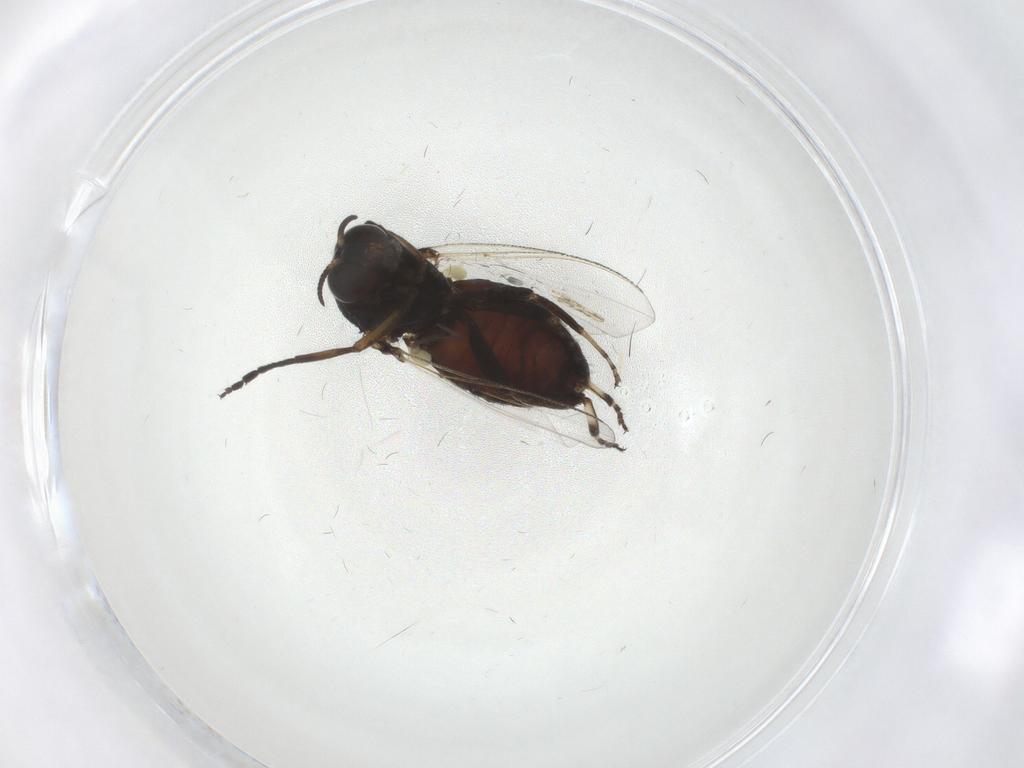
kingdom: Animalia
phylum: Arthropoda
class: Insecta
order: Diptera
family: Simuliidae
